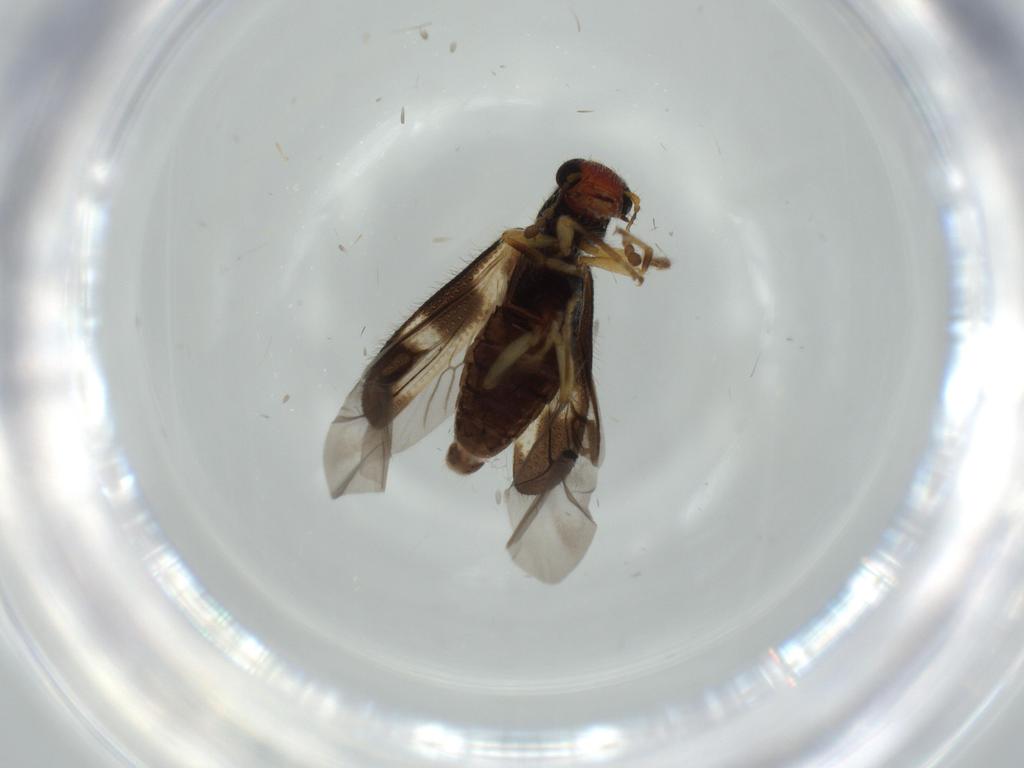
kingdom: Animalia
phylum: Arthropoda
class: Insecta
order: Coleoptera
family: Cleridae
